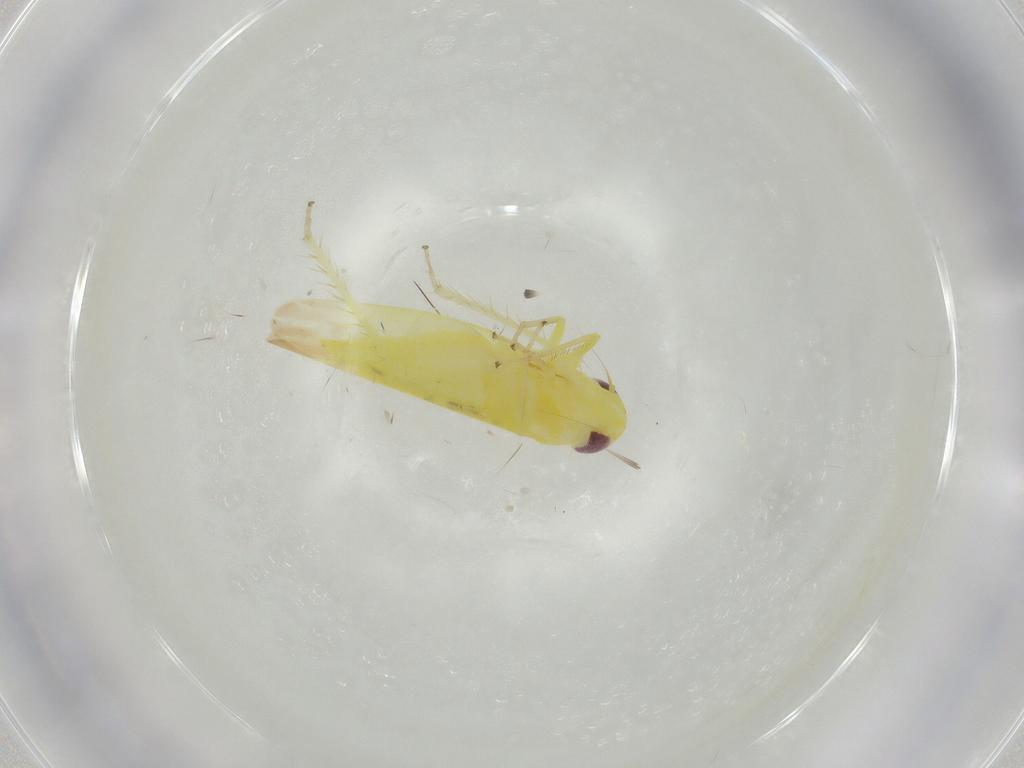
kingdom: Animalia
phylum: Arthropoda
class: Insecta
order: Hemiptera
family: Cicadellidae
